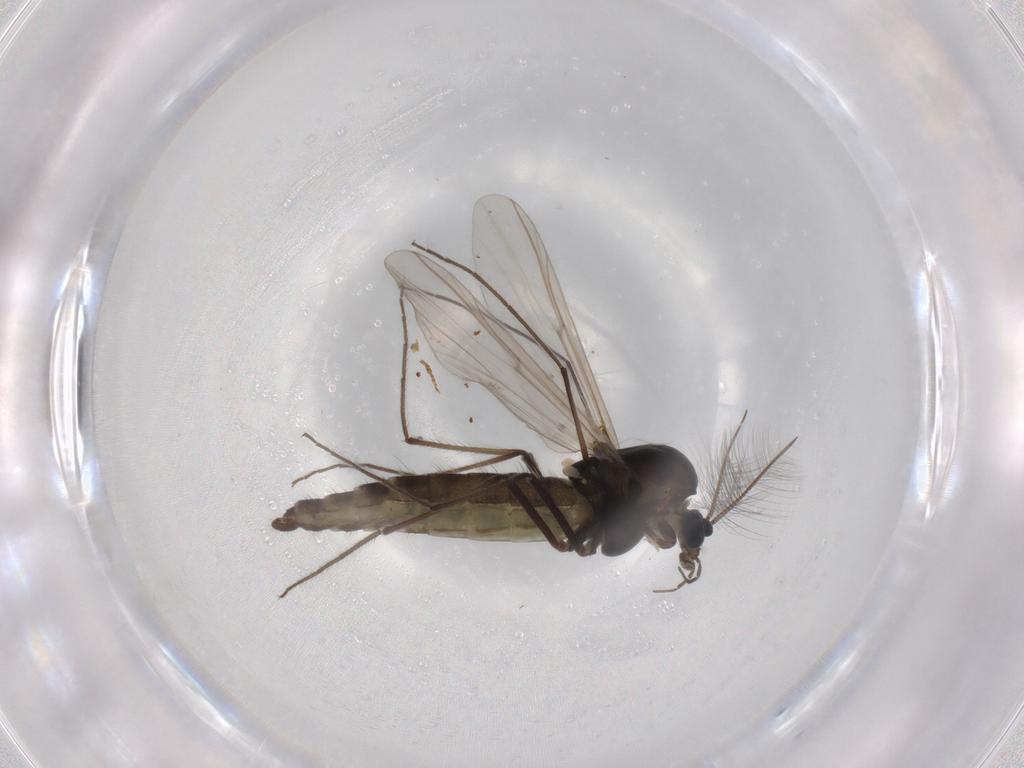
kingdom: Animalia
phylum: Arthropoda
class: Insecta
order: Diptera
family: Chironomidae
